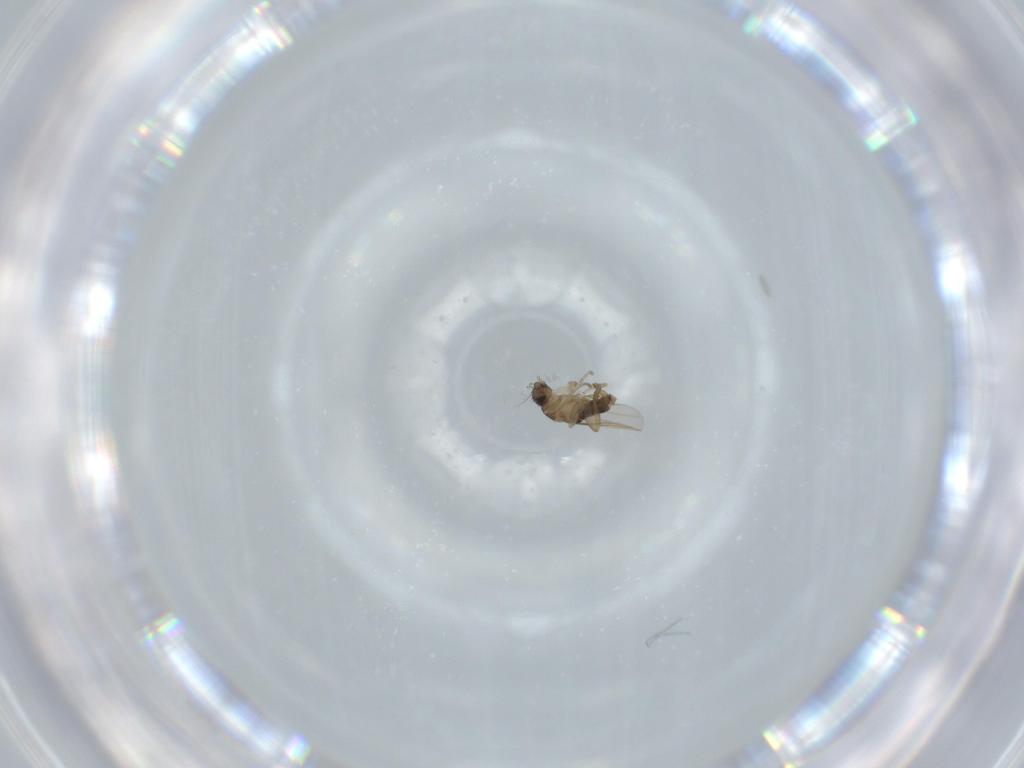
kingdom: Animalia
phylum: Arthropoda
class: Insecta
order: Diptera
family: Phoridae
